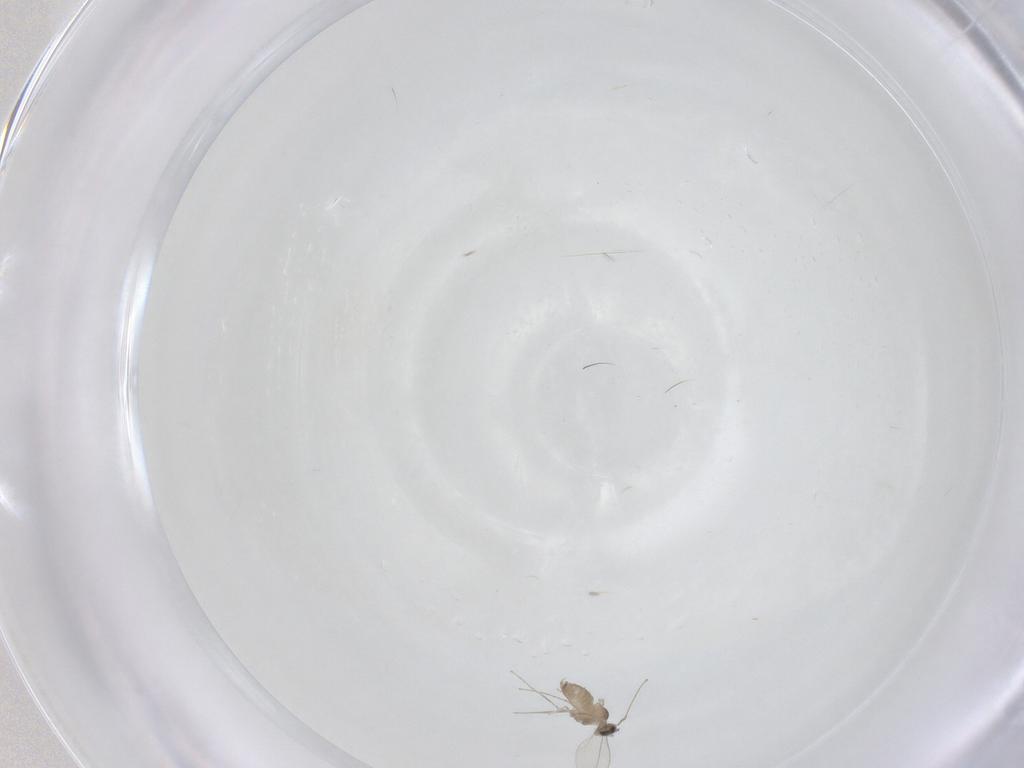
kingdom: Animalia
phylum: Arthropoda
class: Insecta
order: Diptera
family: Cecidomyiidae
